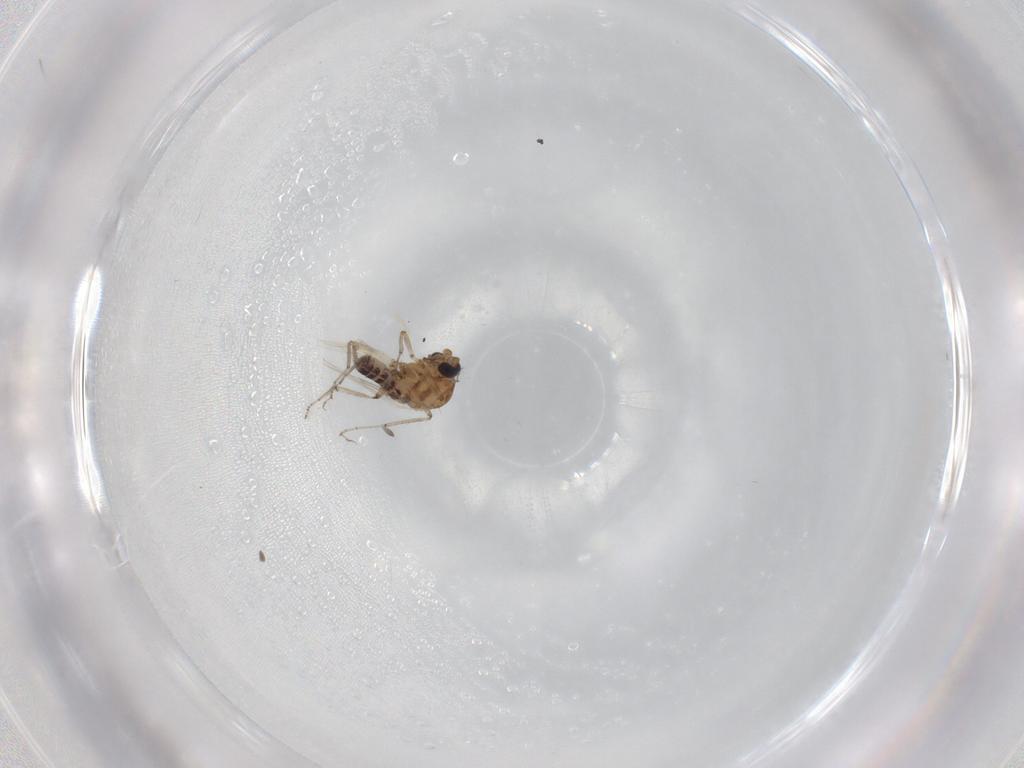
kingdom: Animalia
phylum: Arthropoda
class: Insecta
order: Diptera
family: Ceratopogonidae
